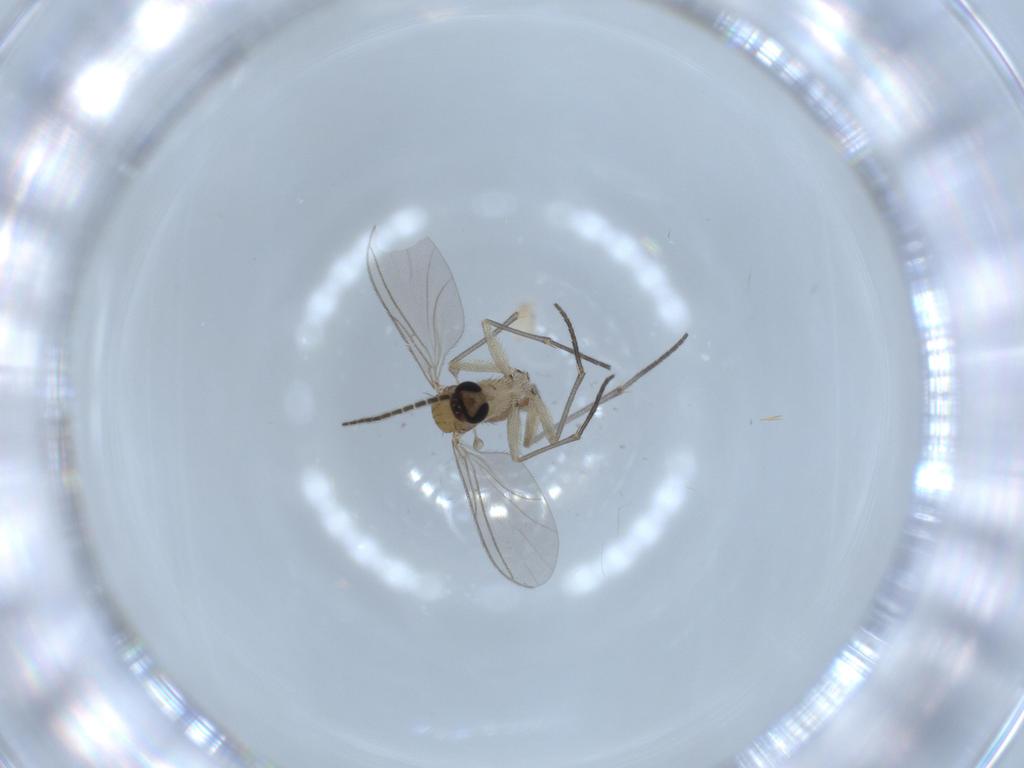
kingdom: Animalia
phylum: Arthropoda
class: Insecta
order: Diptera
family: Sciaridae
